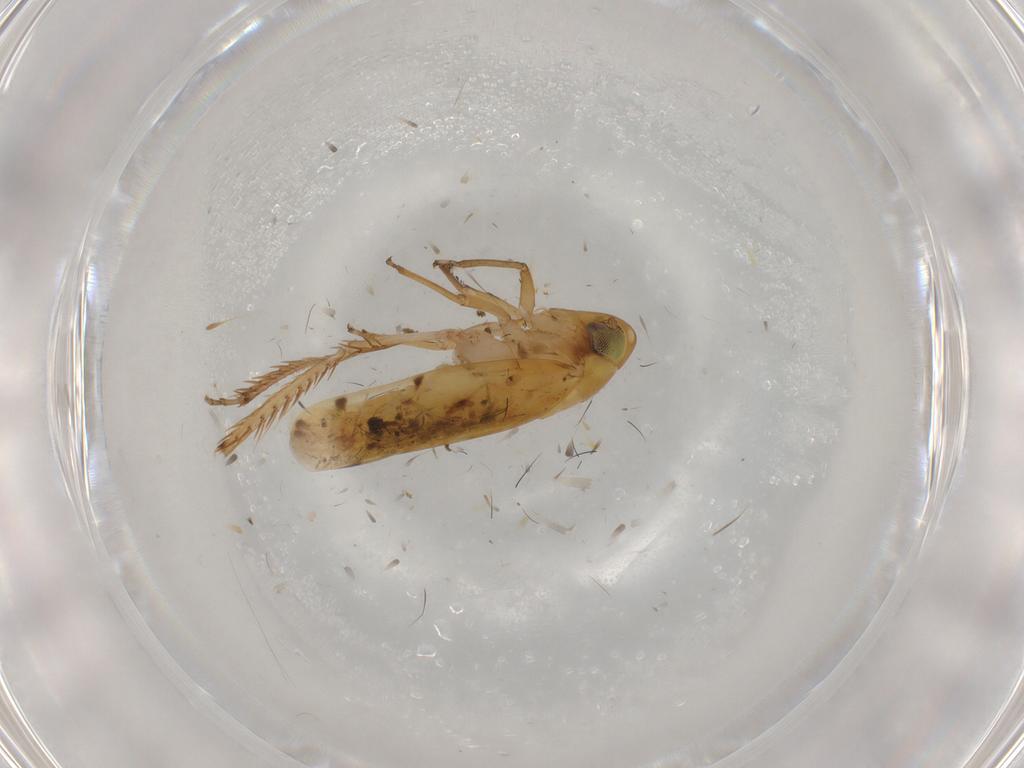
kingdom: Animalia
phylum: Arthropoda
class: Insecta
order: Hemiptera
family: Cicadellidae
